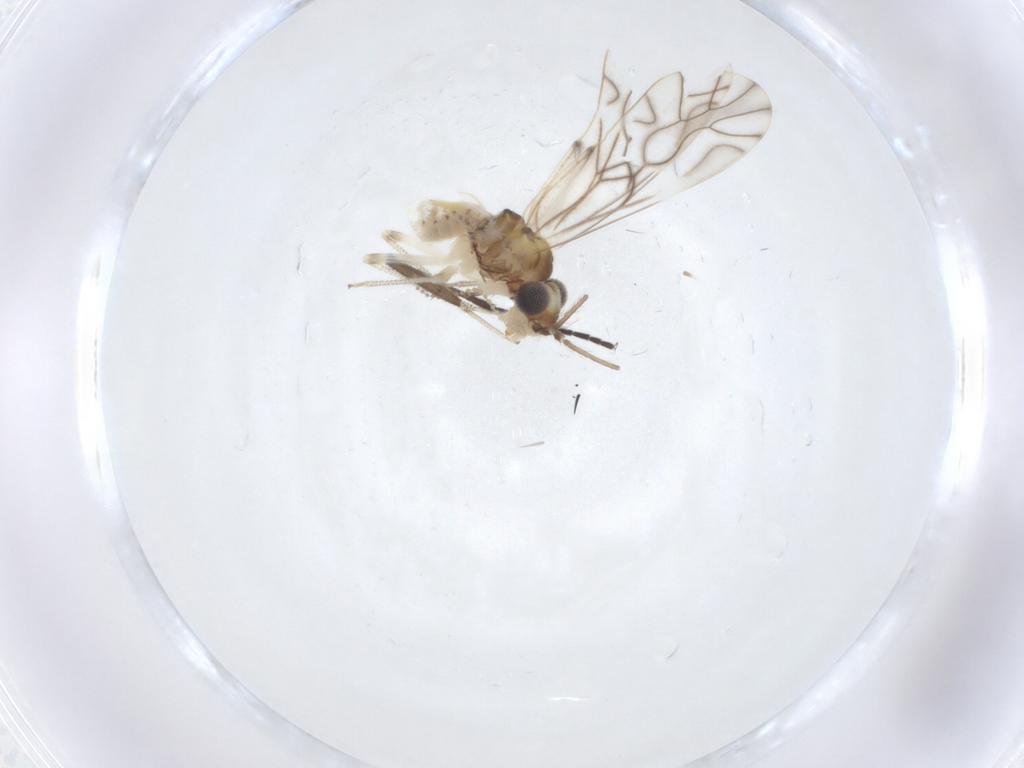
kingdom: Animalia
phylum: Arthropoda
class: Insecta
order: Psocodea
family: Caeciliusidae
